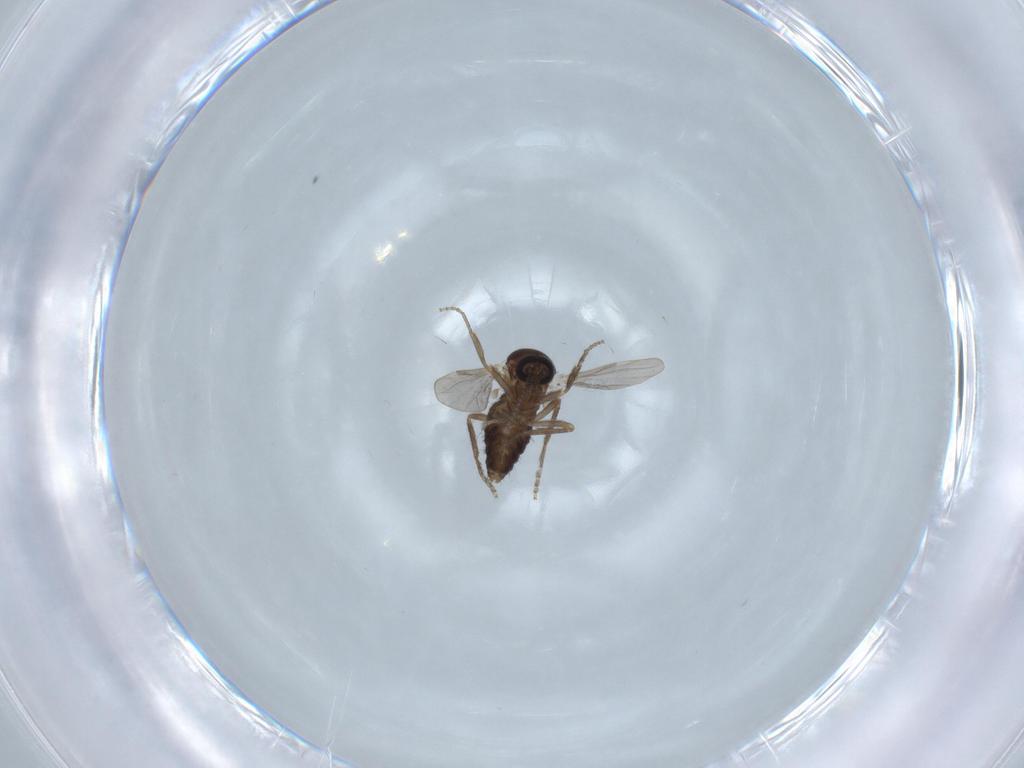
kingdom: Animalia
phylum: Arthropoda
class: Insecta
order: Diptera
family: Ceratopogonidae
